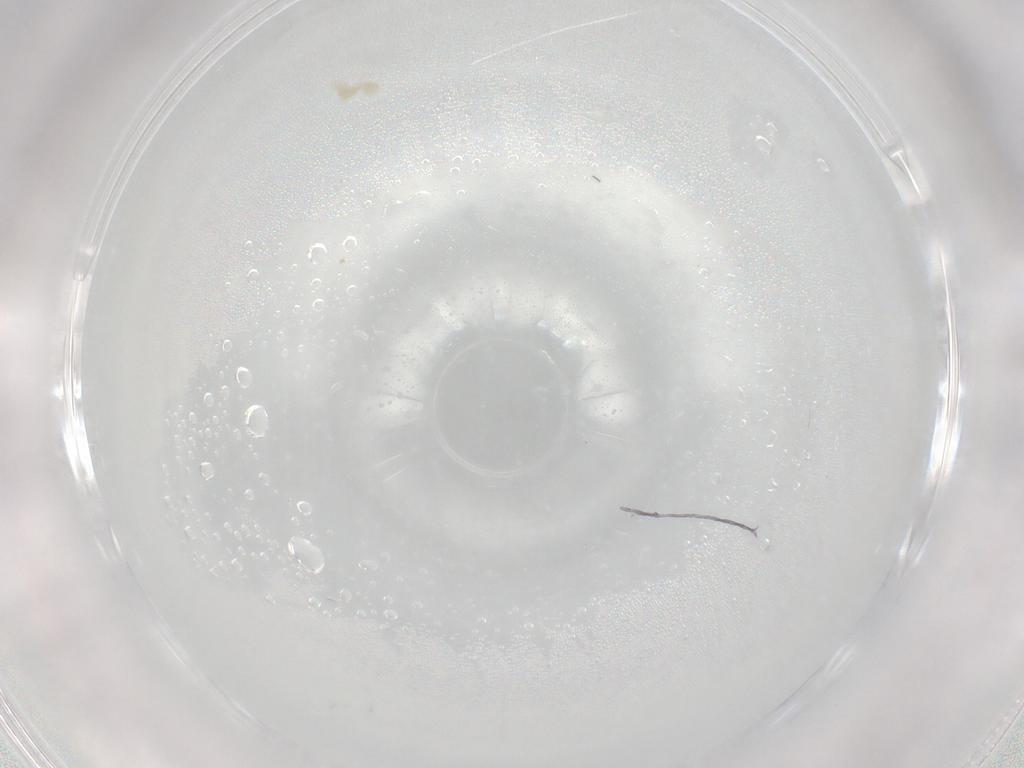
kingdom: Animalia
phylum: Arthropoda
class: Arachnida
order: Trombidiformes
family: Eupodidae
